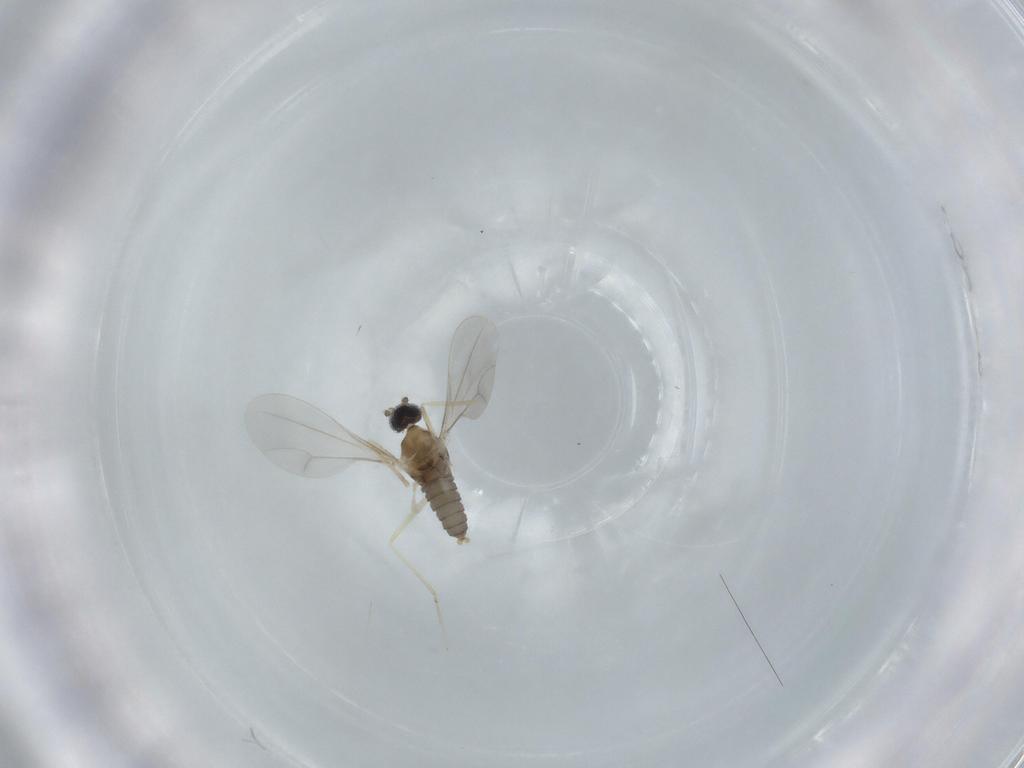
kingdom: Animalia
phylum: Arthropoda
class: Insecta
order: Diptera
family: Cecidomyiidae
